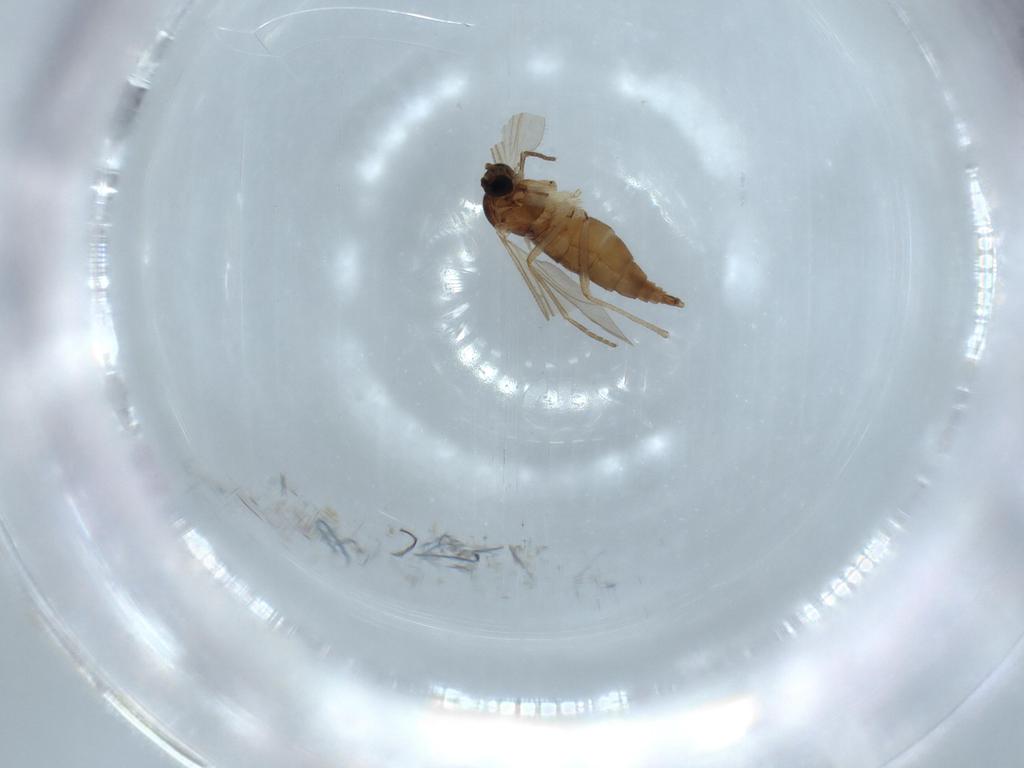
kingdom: Animalia
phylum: Arthropoda
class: Insecta
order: Diptera
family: Sciaridae
